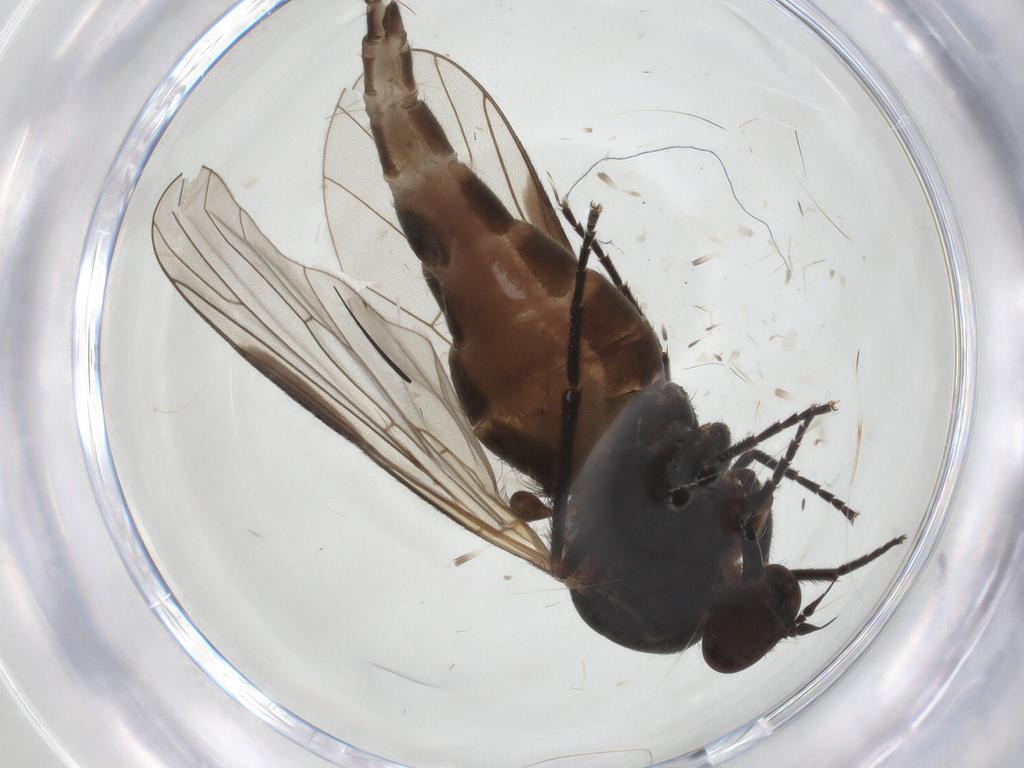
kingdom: Animalia
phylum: Arthropoda
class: Insecta
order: Diptera
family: Empididae
